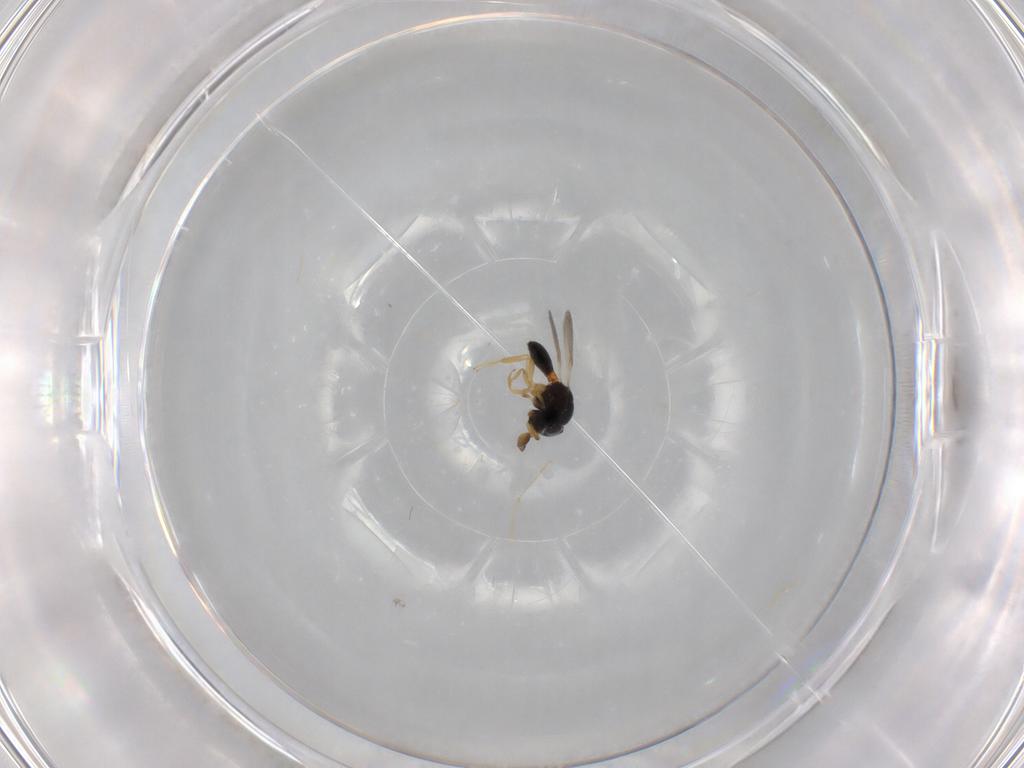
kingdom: Animalia
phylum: Arthropoda
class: Insecta
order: Hymenoptera
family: Scelionidae
